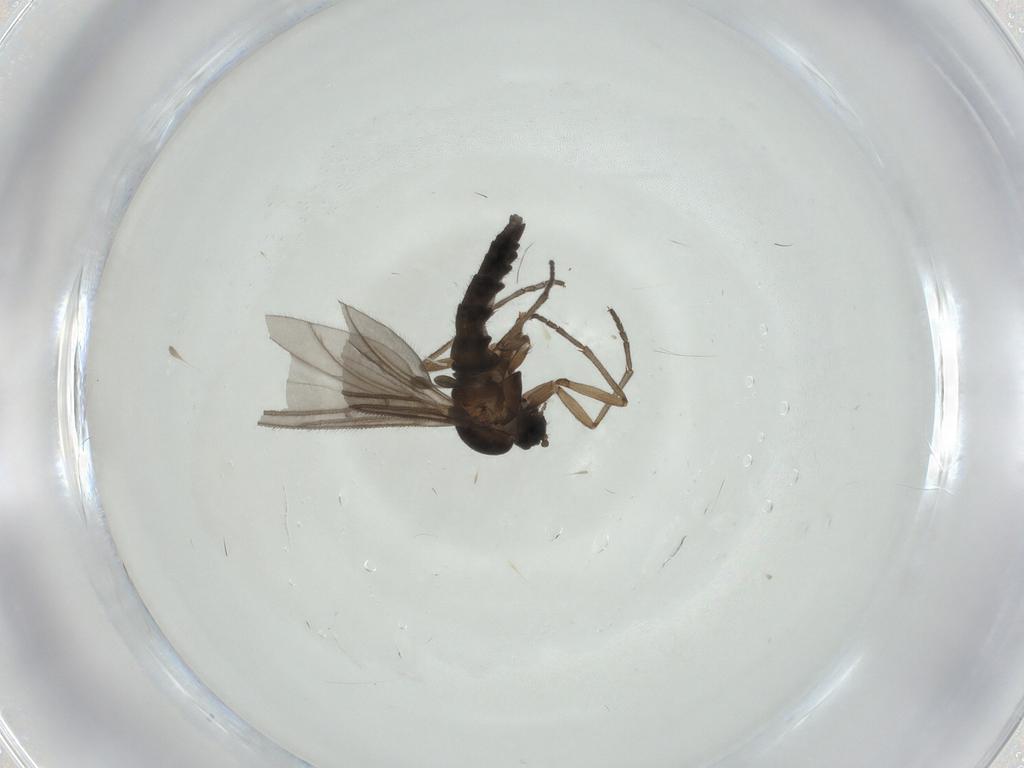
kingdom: Animalia
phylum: Arthropoda
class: Insecta
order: Diptera
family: Sciaridae
